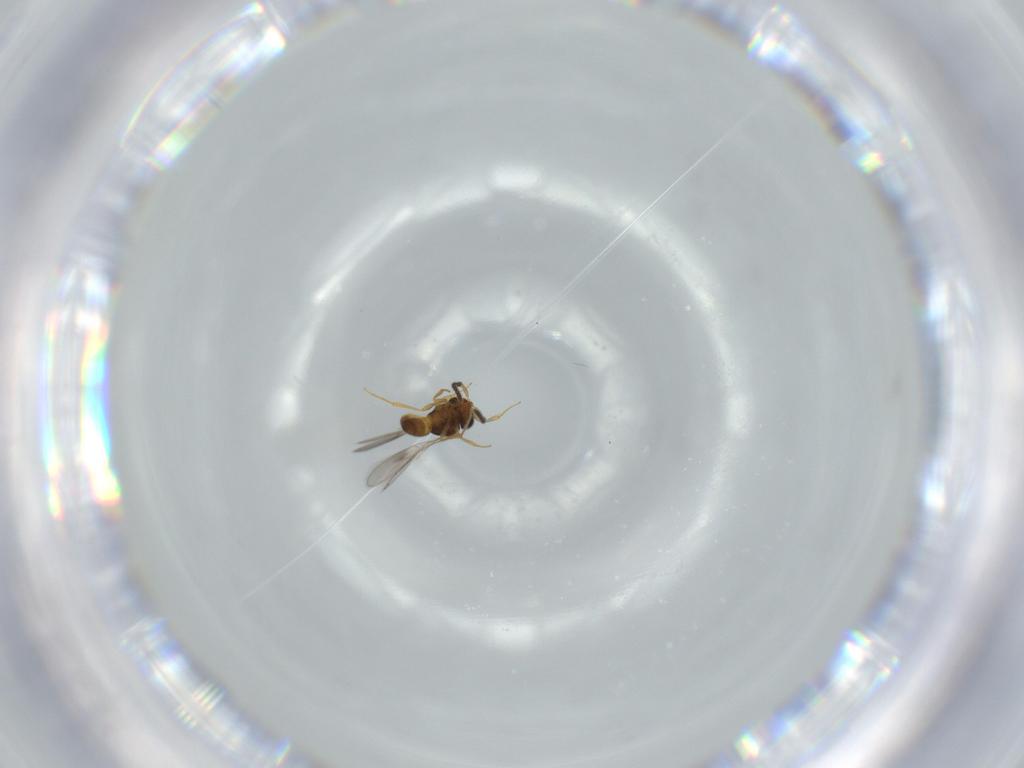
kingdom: Animalia
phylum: Arthropoda
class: Insecta
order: Hymenoptera
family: Scelionidae
